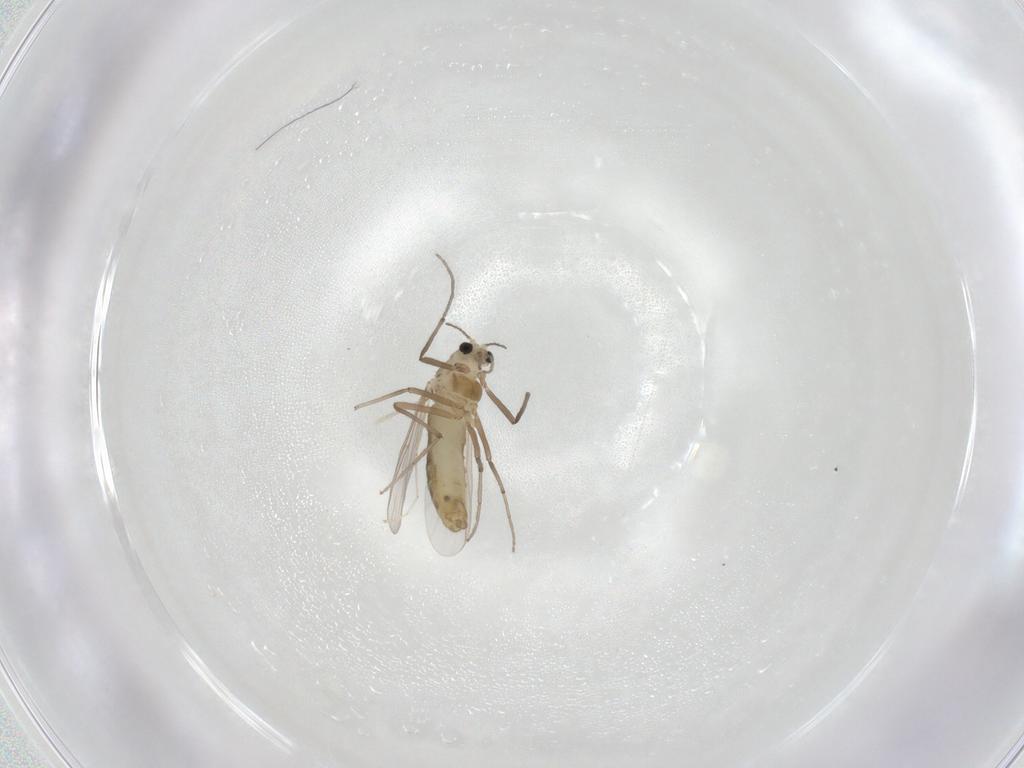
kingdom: Animalia
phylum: Arthropoda
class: Insecta
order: Diptera
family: Chironomidae
